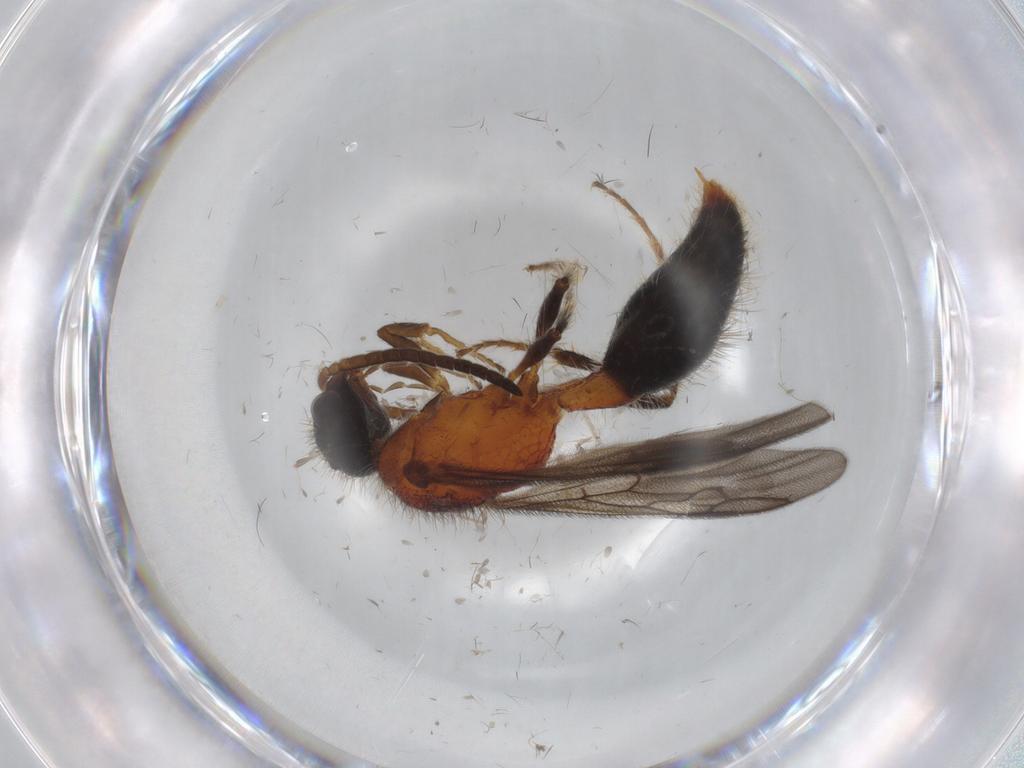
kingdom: Animalia
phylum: Arthropoda
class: Insecta
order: Hymenoptera
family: Mutillidae
